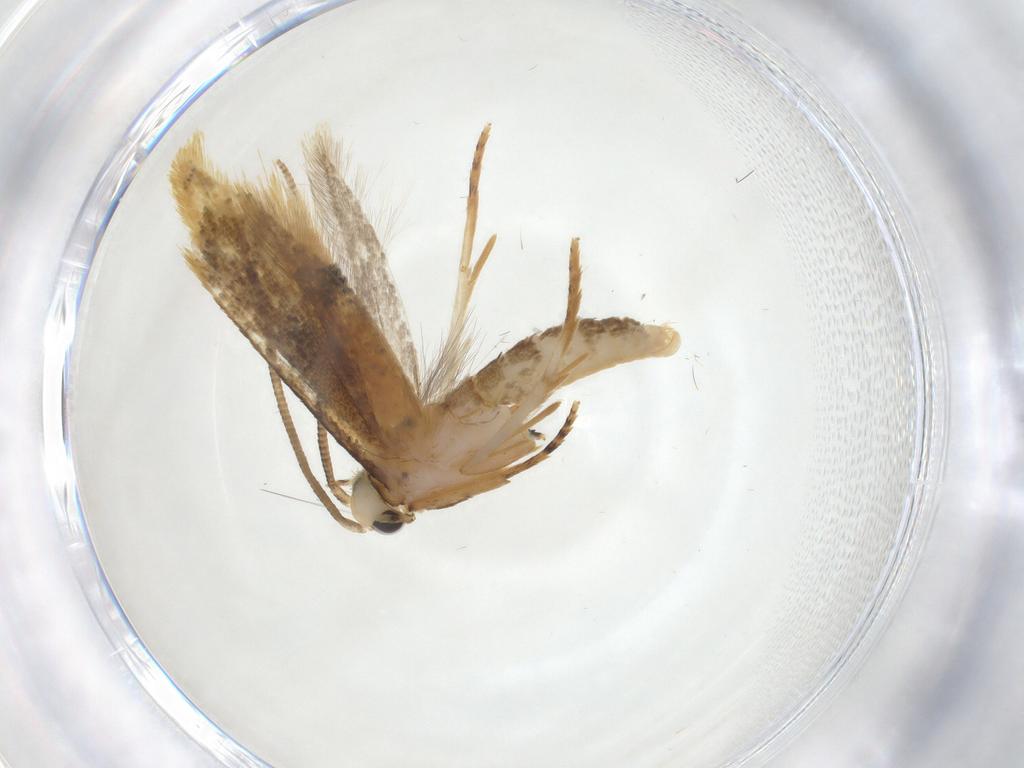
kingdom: Animalia
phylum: Arthropoda
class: Insecta
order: Lepidoptera
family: Tineidae
